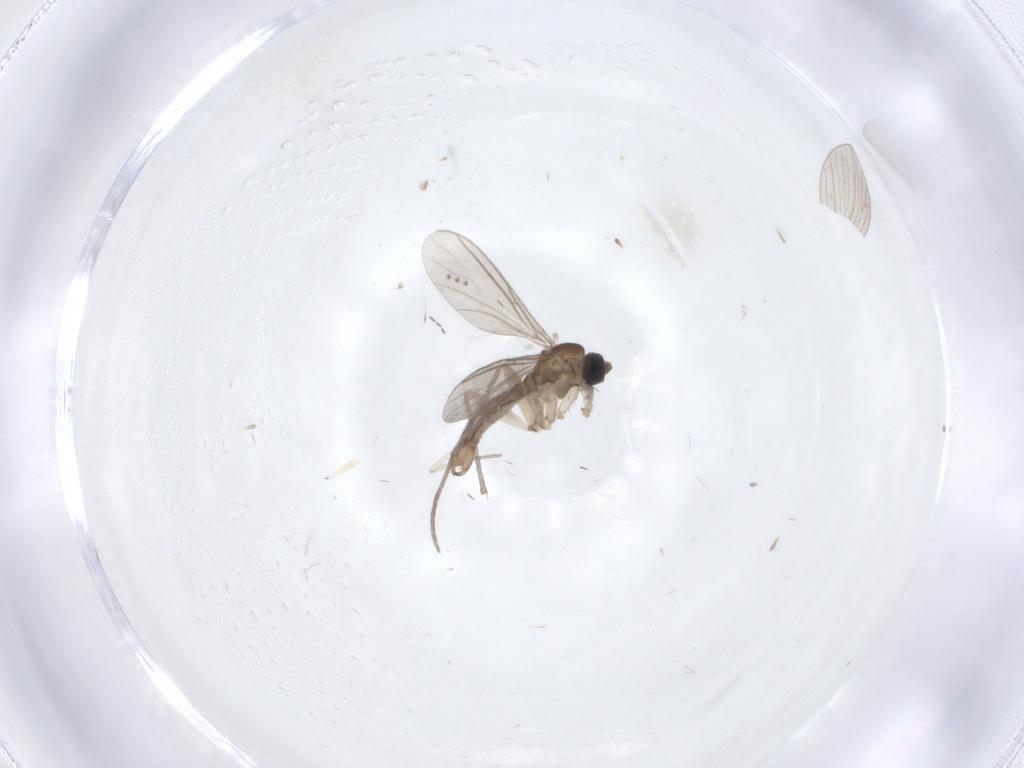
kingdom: Animalia
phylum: Arthropoda
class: Insecta
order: Diptera
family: Sciaridae
